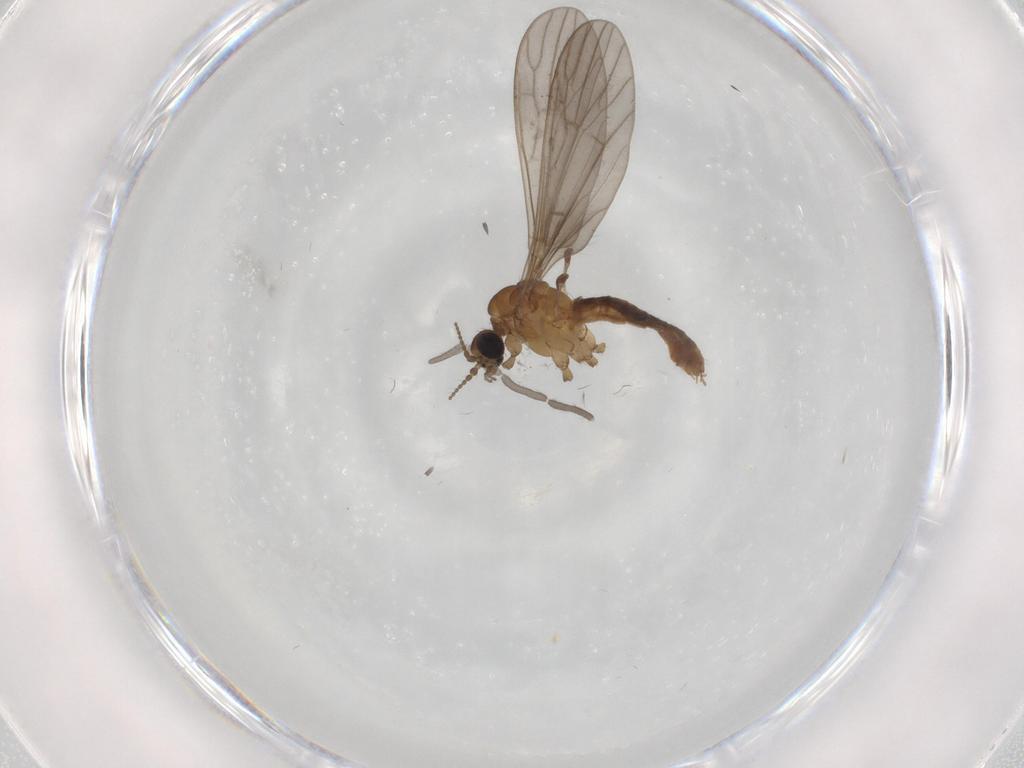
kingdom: Animalia
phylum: Arthropoda
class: Insecta
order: Diptera
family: Limoniidae
